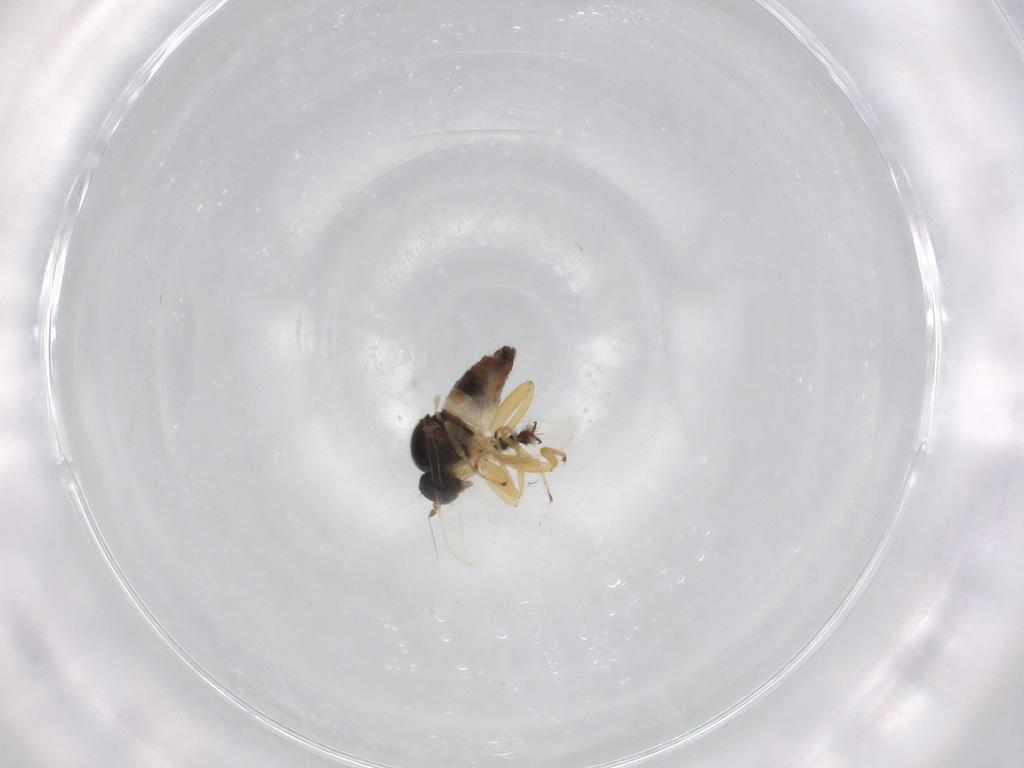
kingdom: Animalia
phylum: Arthropoda
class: Insecta
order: Diptera
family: Hybotidae
